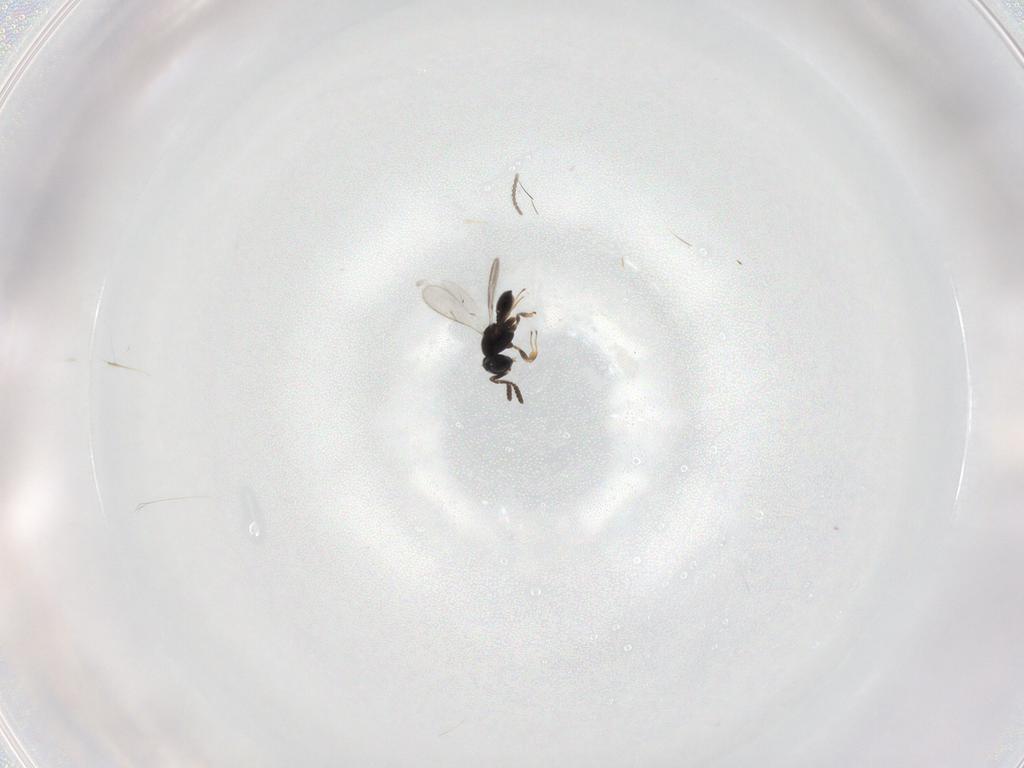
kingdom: Animalia
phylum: Arthropoda
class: Insecta
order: Hymenoptera
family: Scelionidae
